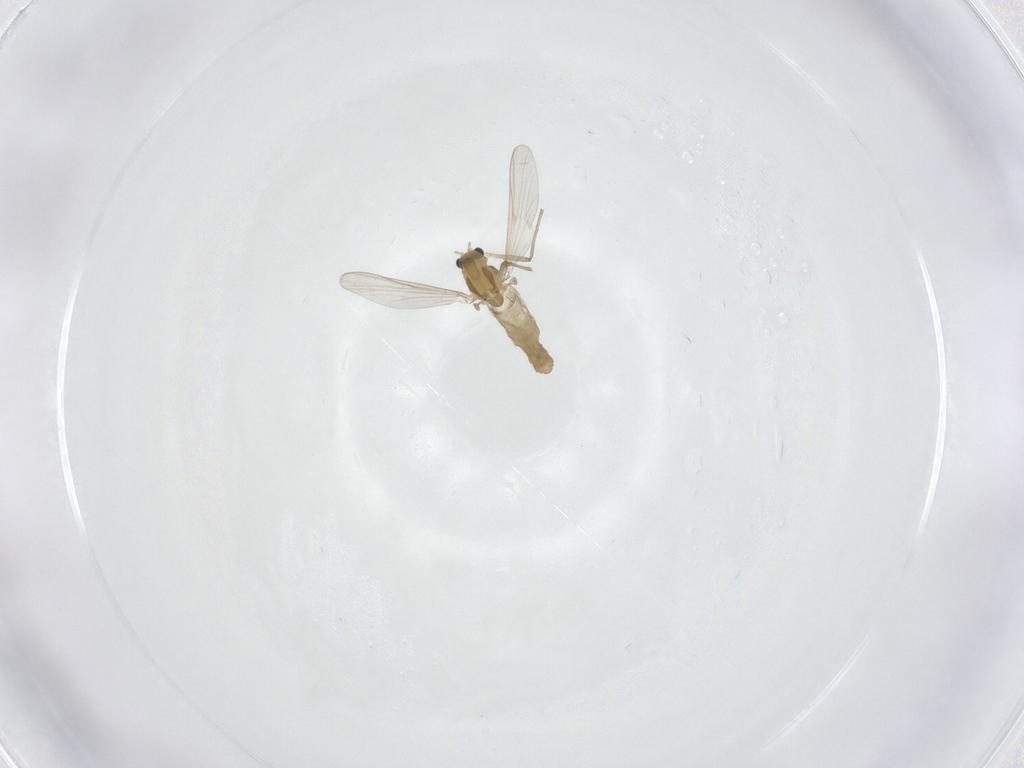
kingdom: Animalia
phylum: Arthropoda
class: Insecta
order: Diptera
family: Chironomidae
